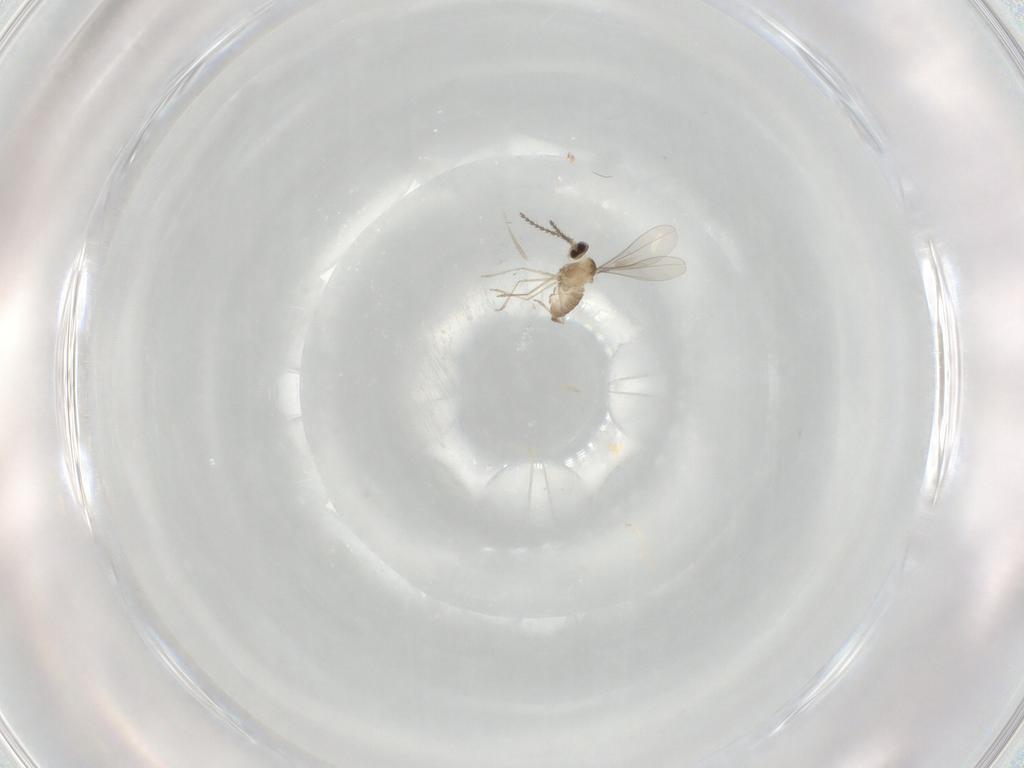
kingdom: Animalia
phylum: Arthropoda
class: Insecta
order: Diptera
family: Cecidomyiidae
